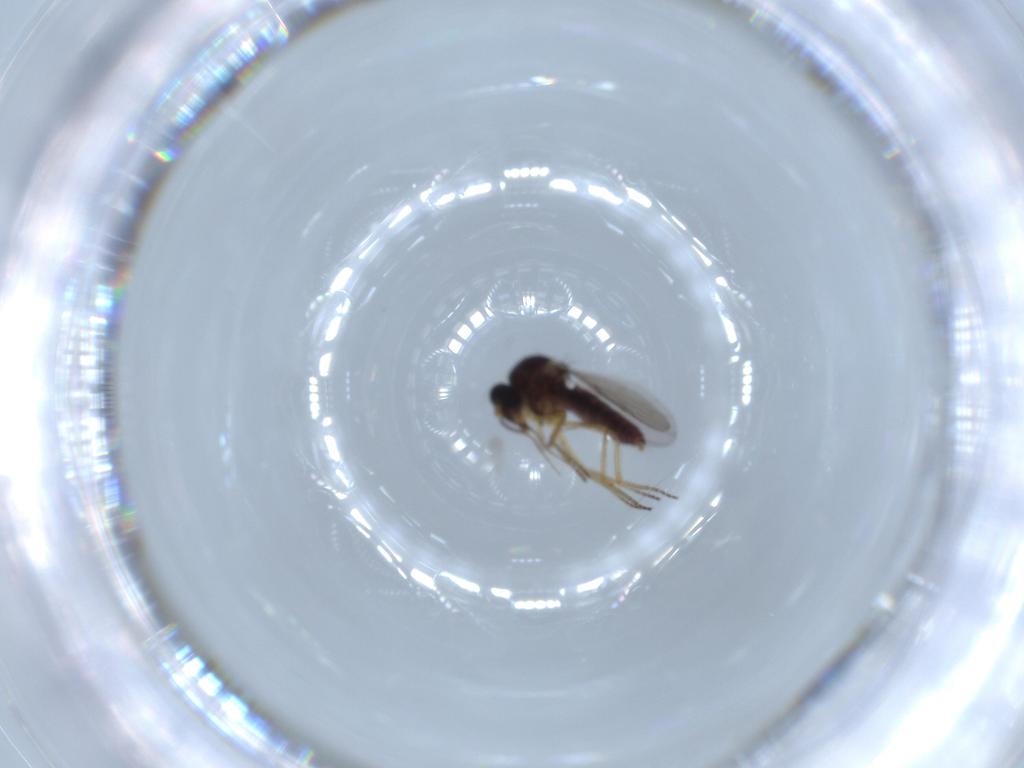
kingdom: Animalia
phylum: Arthropoda
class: Insecta
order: Diptera
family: Ceratopogonidae
